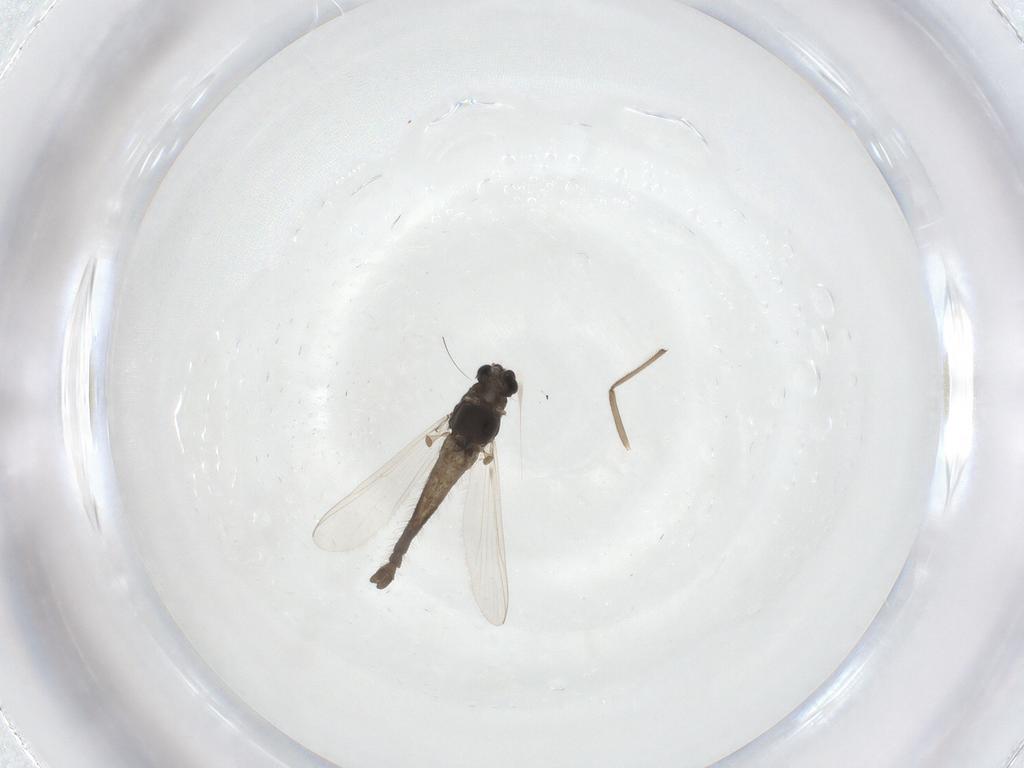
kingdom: Animalia
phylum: Arthropoda
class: Insecta
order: Diptera
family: Chironomidae
